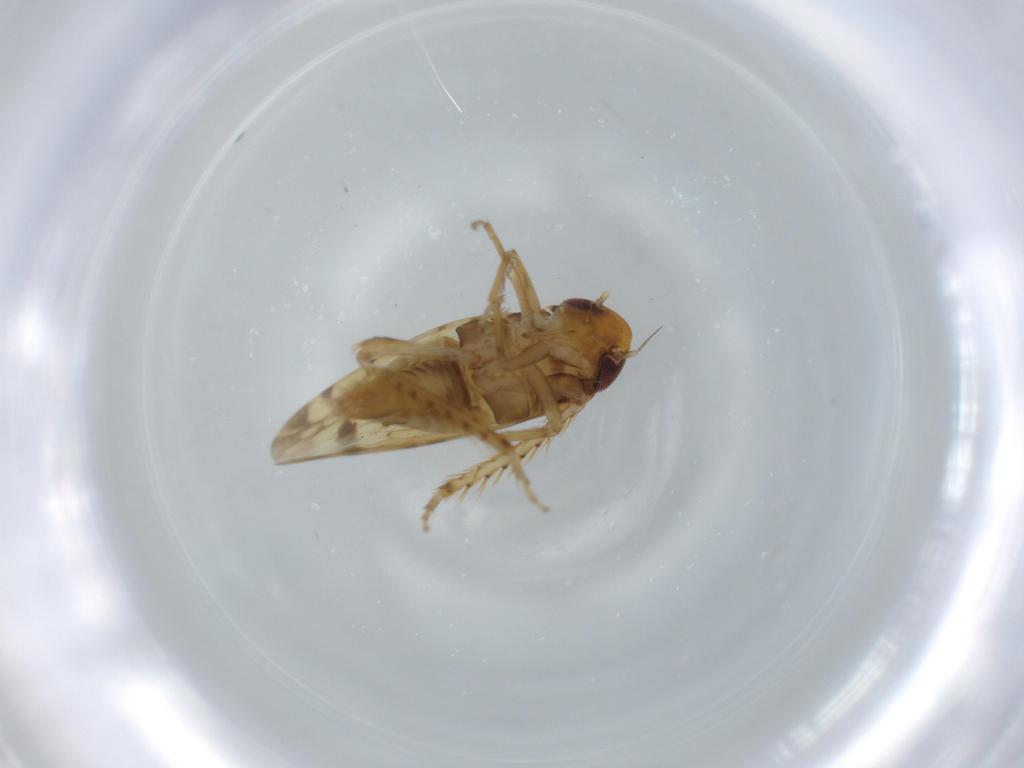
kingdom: Animalia
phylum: Arthropoda
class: Insecta
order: Hemiptera
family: Cicadellidae
